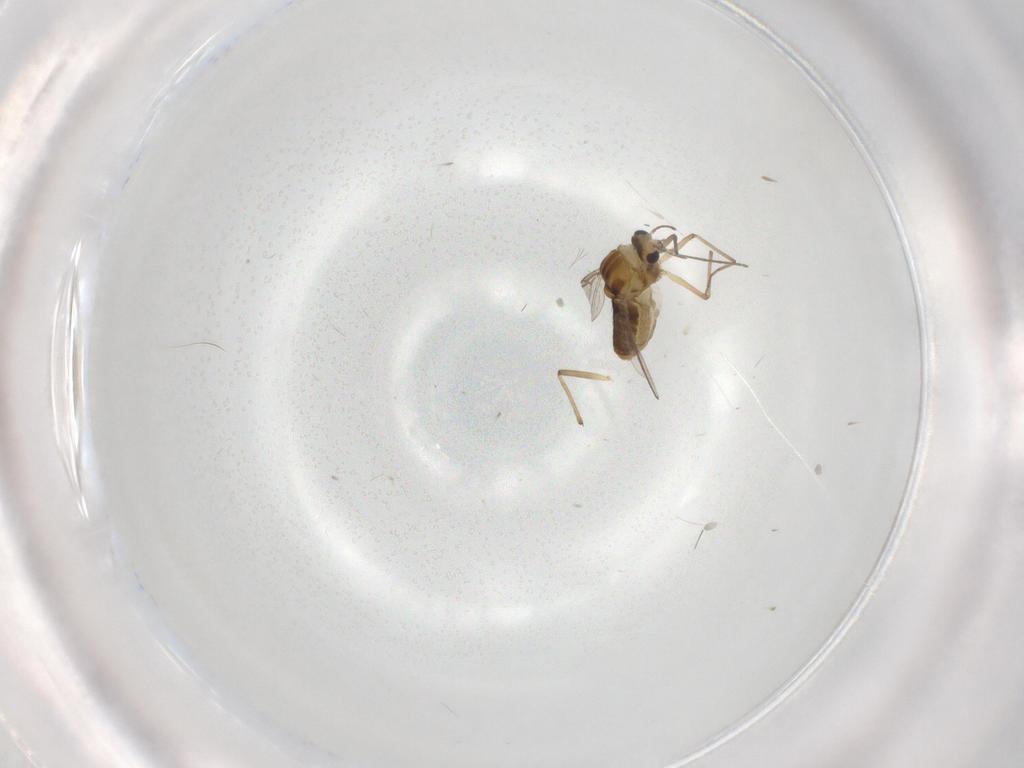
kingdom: Animalia
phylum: Arthropoda
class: Insecta
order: Diptera
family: Chironomidae
